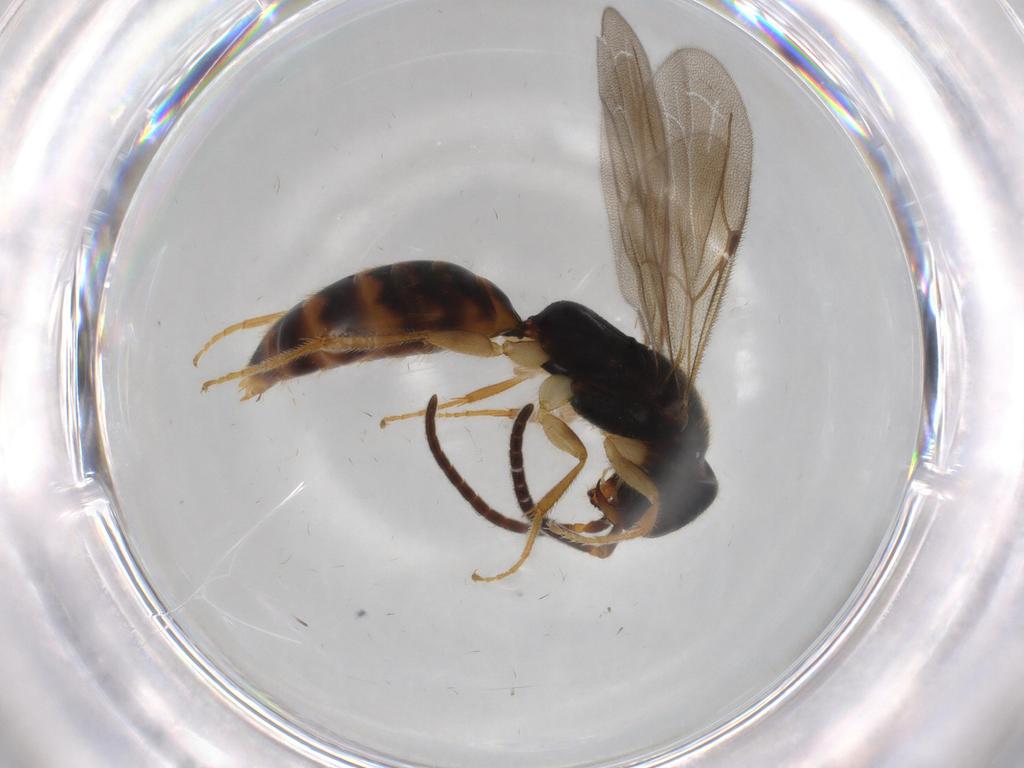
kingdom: Animalia
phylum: Arthropoda
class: Insecta
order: Hymenoptera
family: Bethylidae
